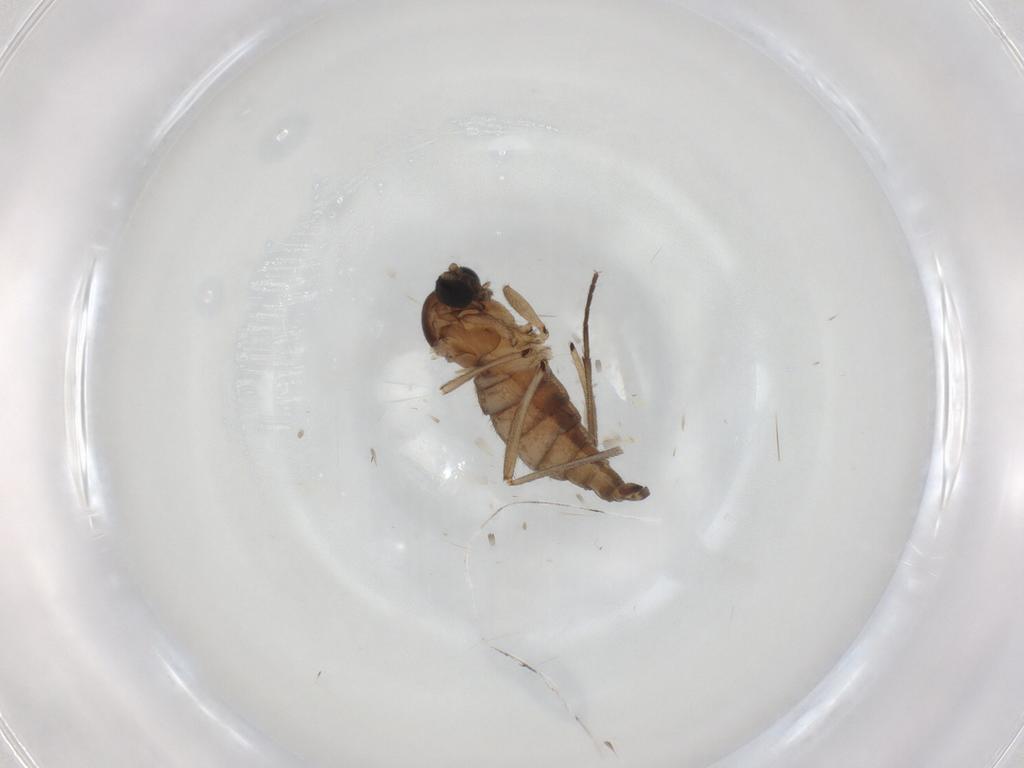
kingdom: Animalia
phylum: Arthropoda
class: Insecta
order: Diptera
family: Sciaridae
